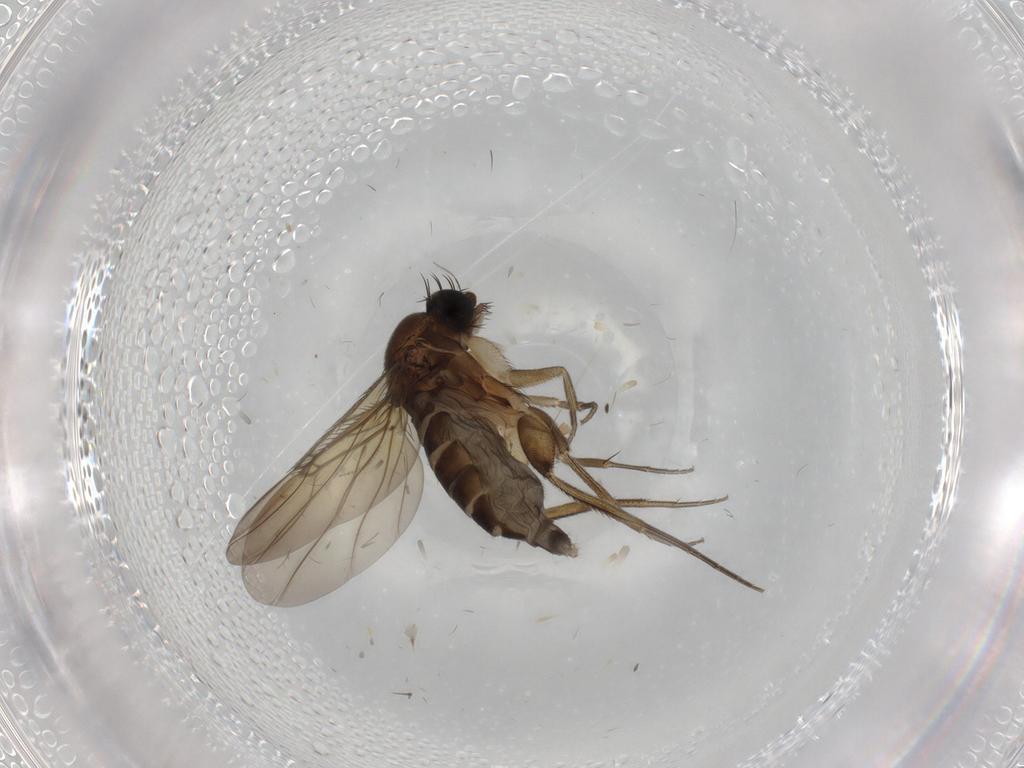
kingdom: Animalia
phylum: Arthropoda
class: Insecta
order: Diptera
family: Phoridae
